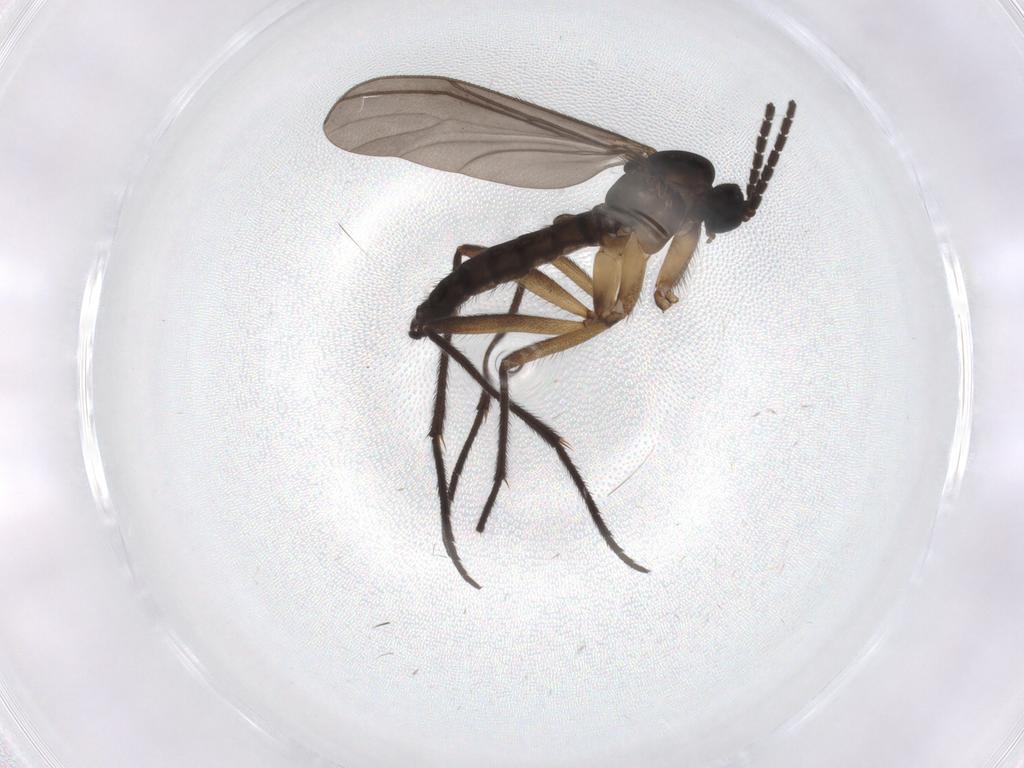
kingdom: Animalia
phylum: Arthropoda
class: Insecta
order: Diptera
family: Sciaridae
